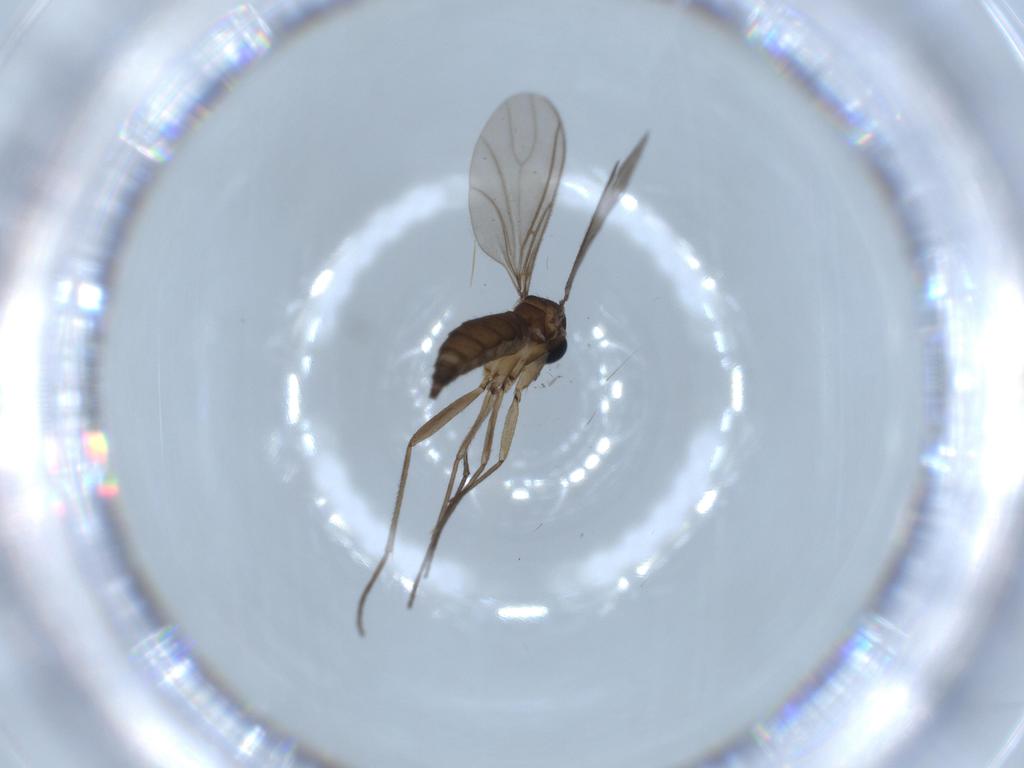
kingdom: Animalia
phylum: Arthropoda
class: Insecta
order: Diptera
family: Sciaridae
